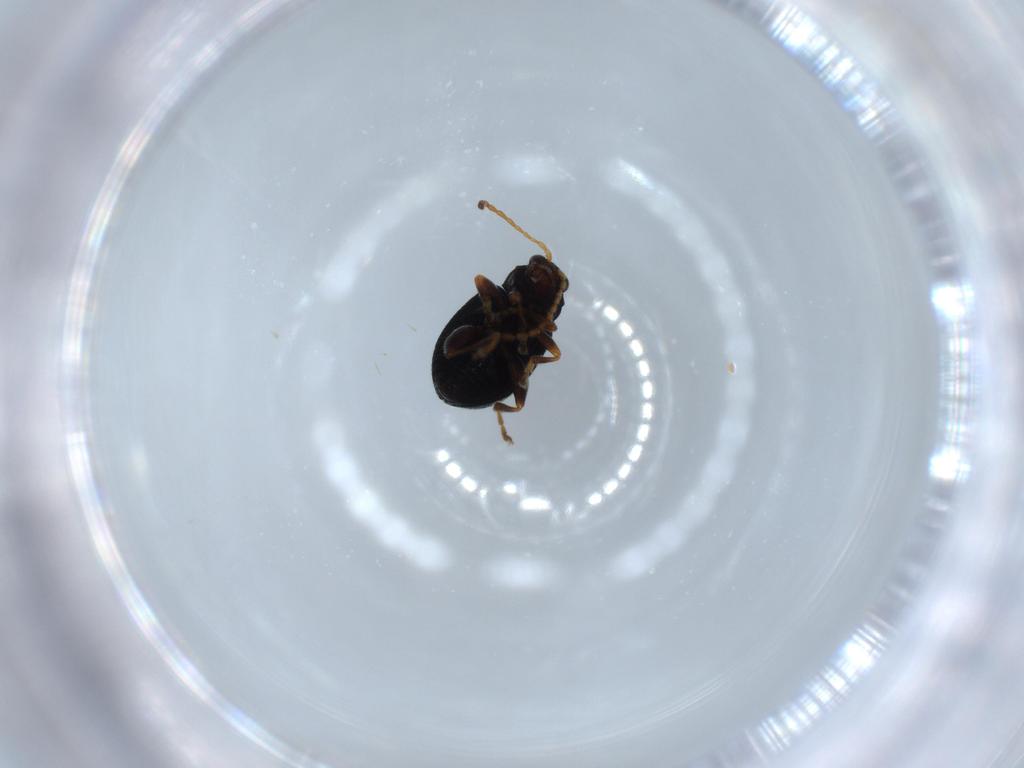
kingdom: Animalia
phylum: Arthropoda
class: Insecta
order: Coleoptera
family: Chrysomelidae
